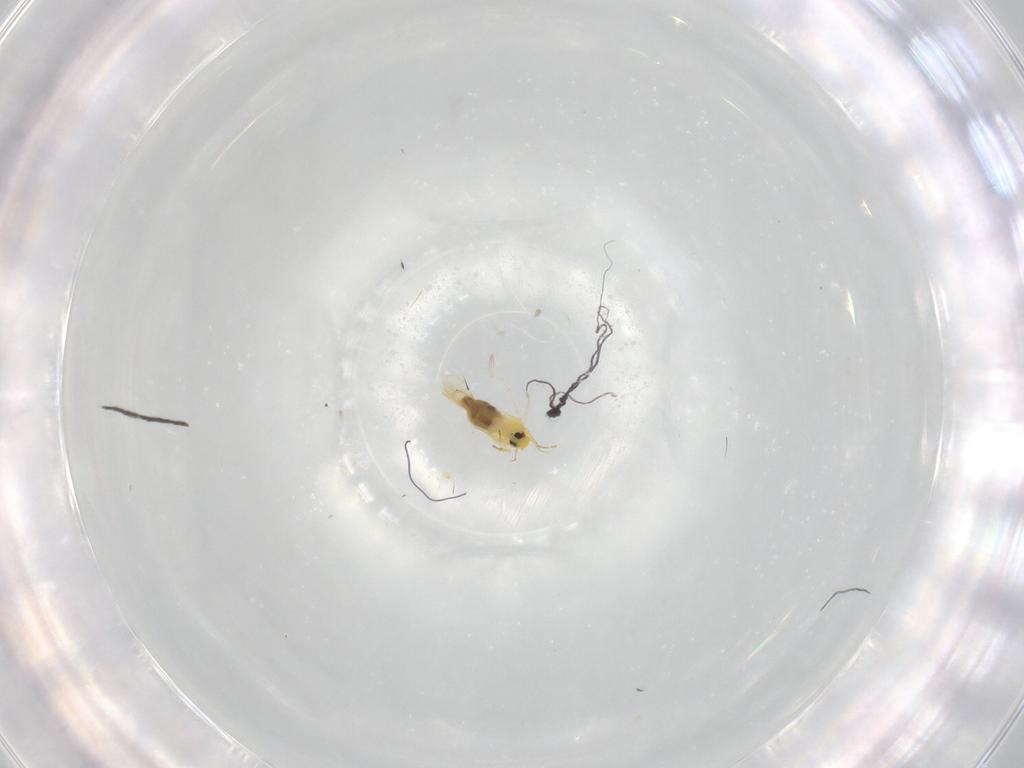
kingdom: Animalia
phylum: Arthropoda
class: Insecta
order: Hemiptera
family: Aleyrodidae
